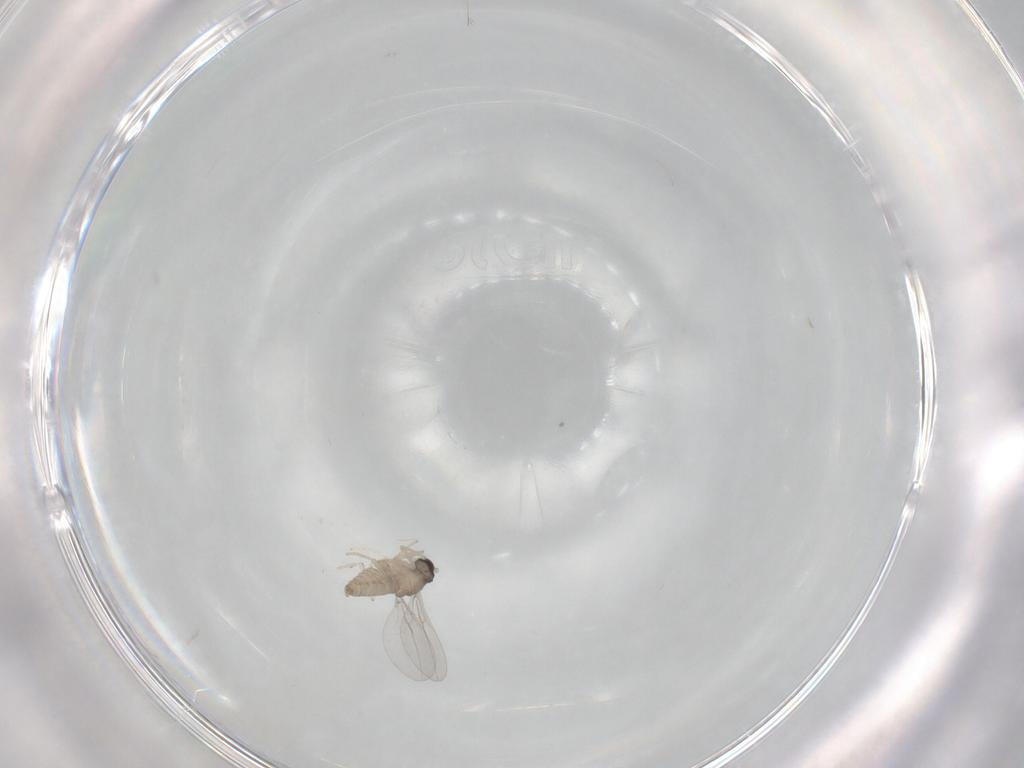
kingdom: Animalia
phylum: Arthropoda
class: Insecta
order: Diptera
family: Cecidomyiidae
